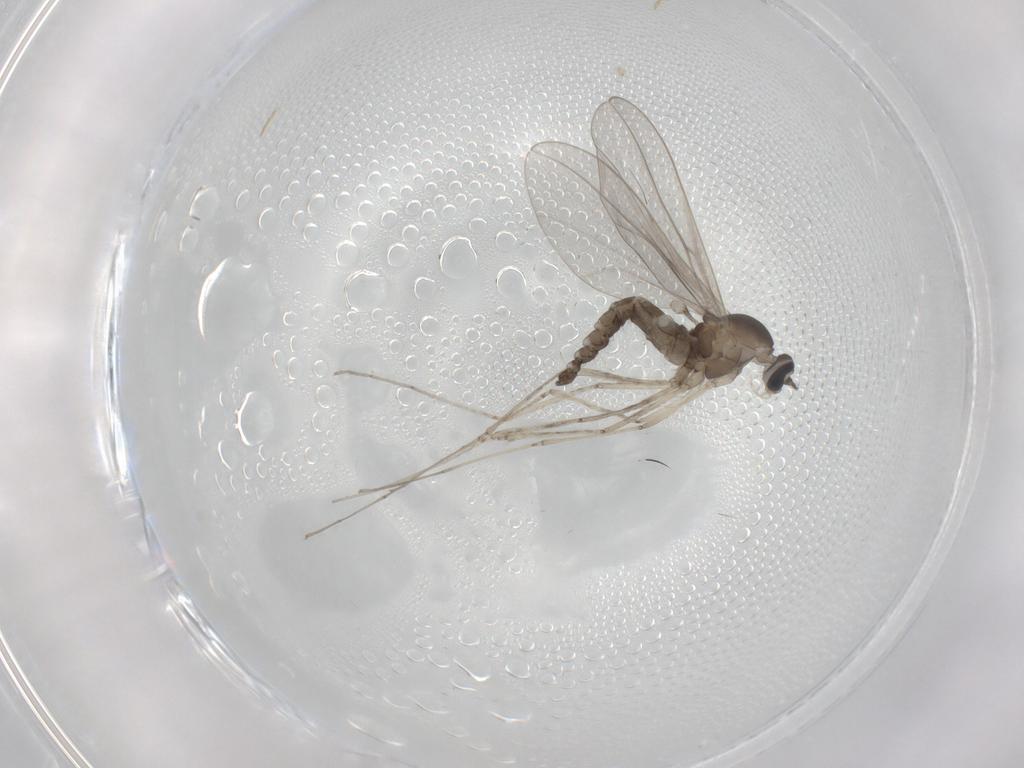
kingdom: Animalia
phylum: Arthropoda
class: Insecta
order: Diptera
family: Cecidomyiidae
